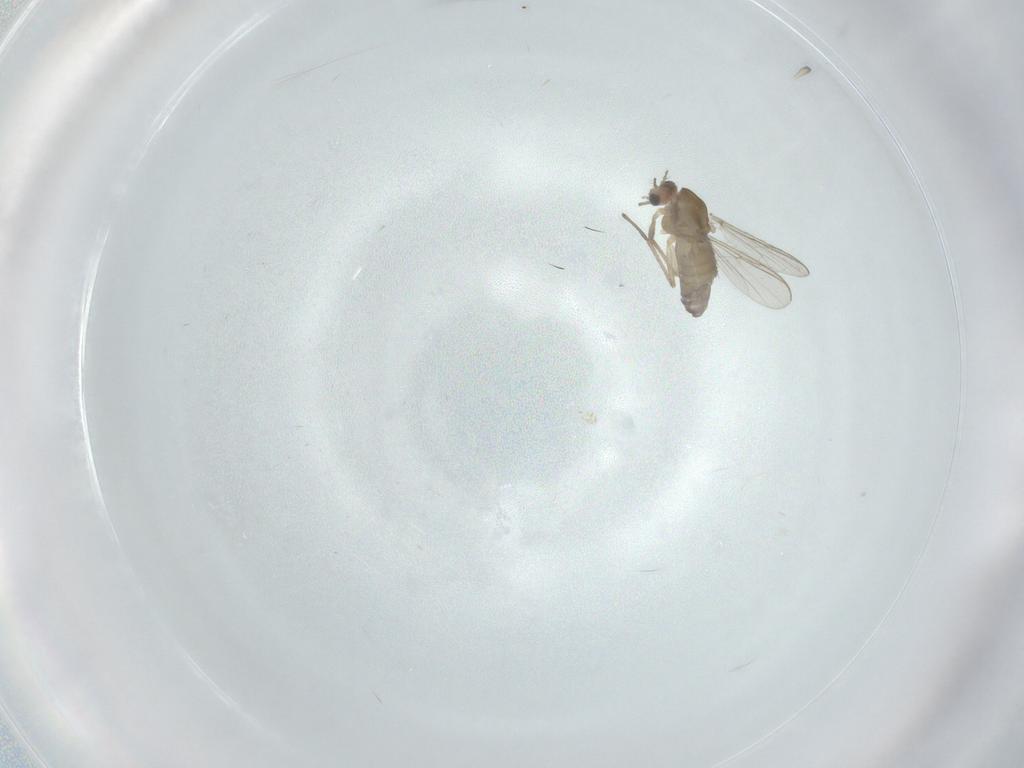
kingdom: Animalia
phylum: Arthropoda
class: Insecta
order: Diptera
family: Chironomidae
